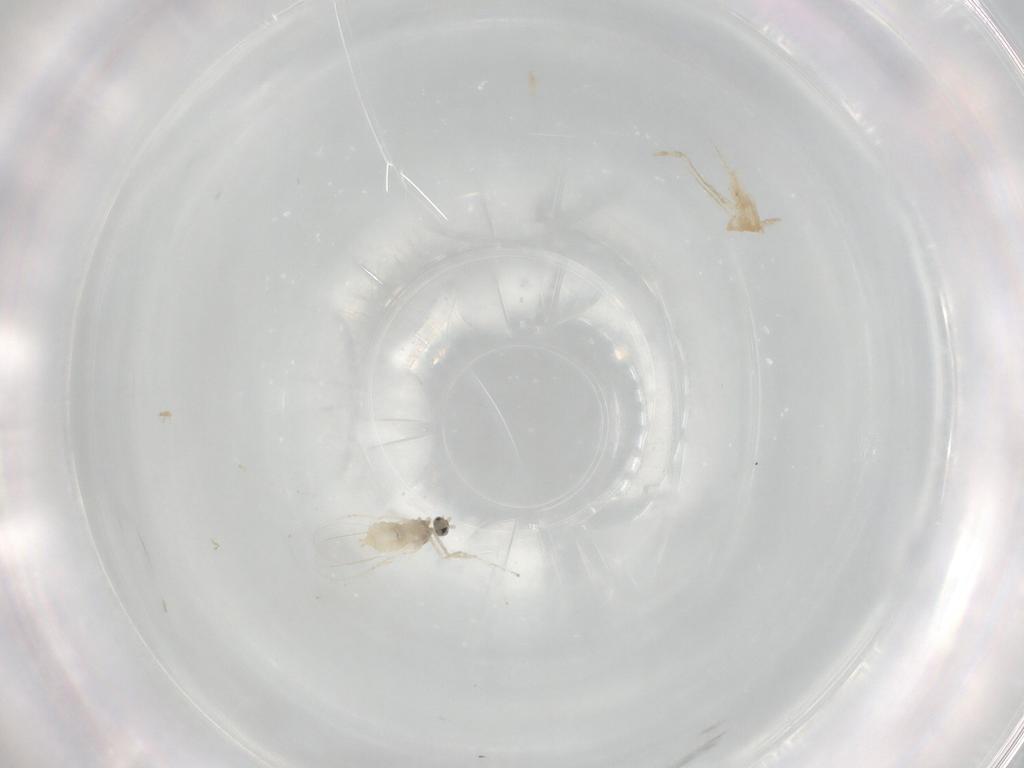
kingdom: Animalia
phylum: Arthropoda
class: Insecta
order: Diptera
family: Cecidomyiidae
